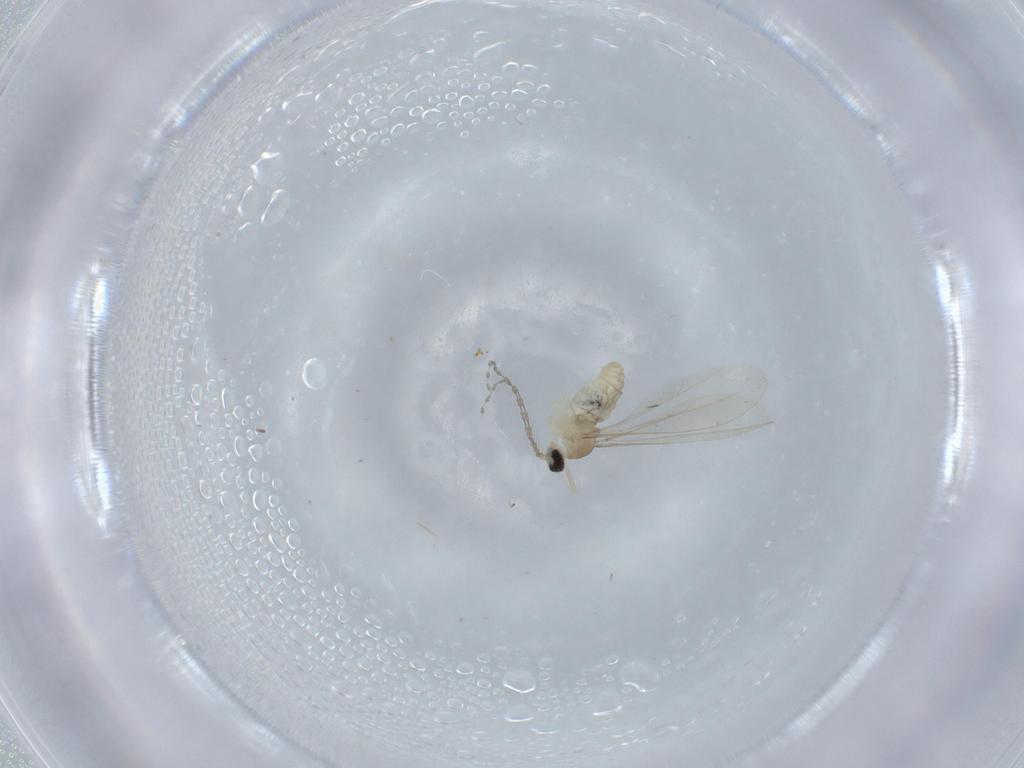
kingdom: Animalia
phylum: Arthropoda
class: Insecta
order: Diptera
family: Cecidomyiidae
